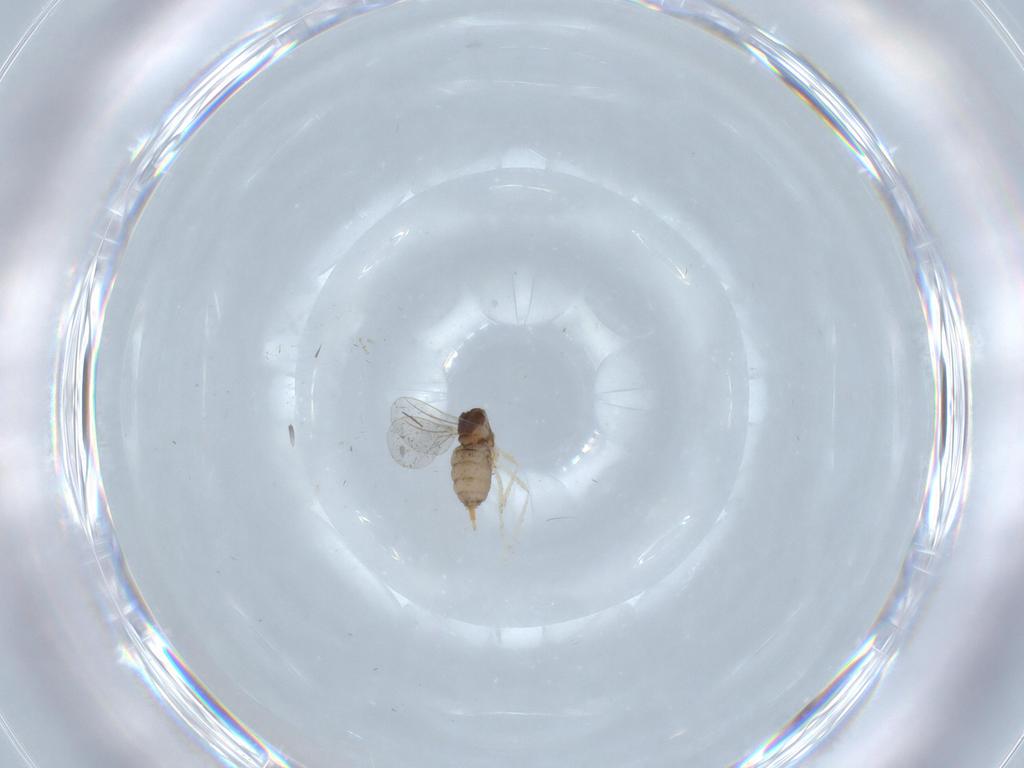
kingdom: Animalia
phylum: Arthropoda
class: Insecta
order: Diptera
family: Cecidomyiidae
